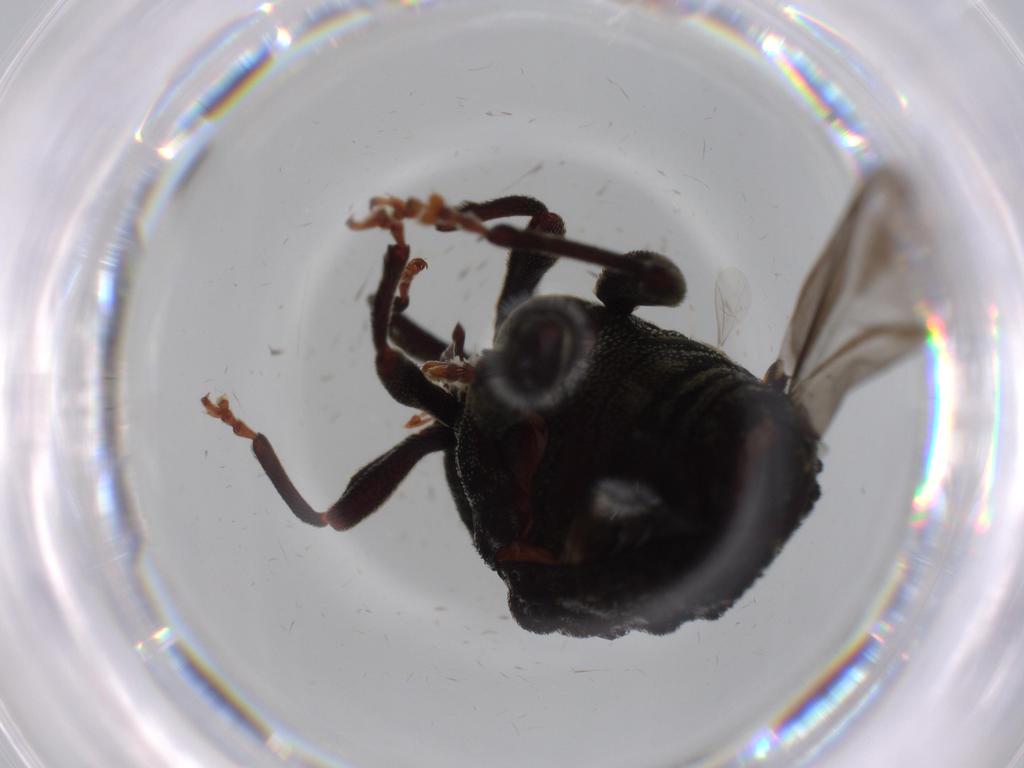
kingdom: Animalia
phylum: Arthropoda
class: Insecta
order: Coleoptera
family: Curculionidae
